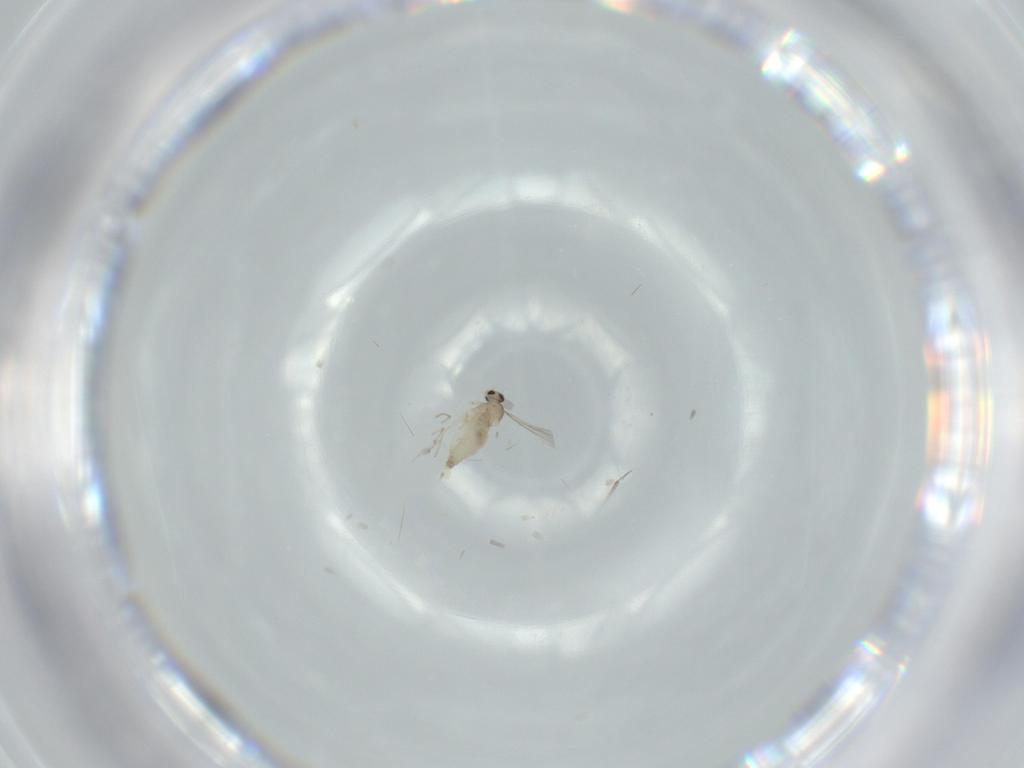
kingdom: Animalia
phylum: Arthropoda
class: Insecta
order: Diptera
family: Cecidomyiidae
